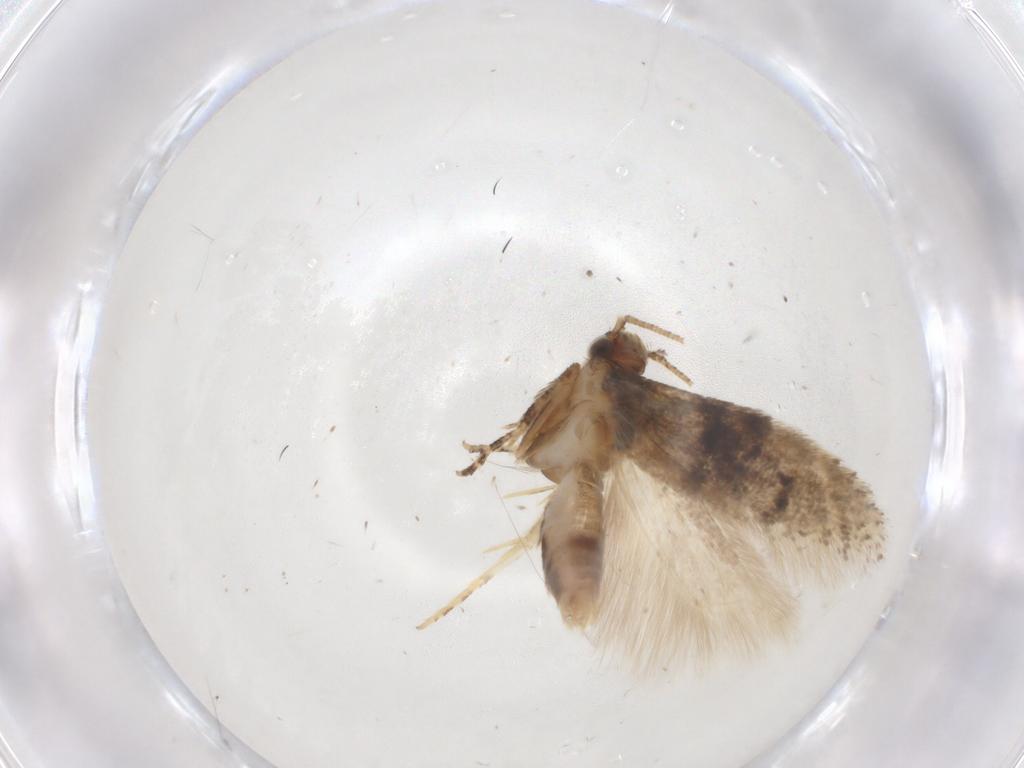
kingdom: Animalia
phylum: Arthropoda
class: Insecta
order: Lepidoptera
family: Gelechiidae
